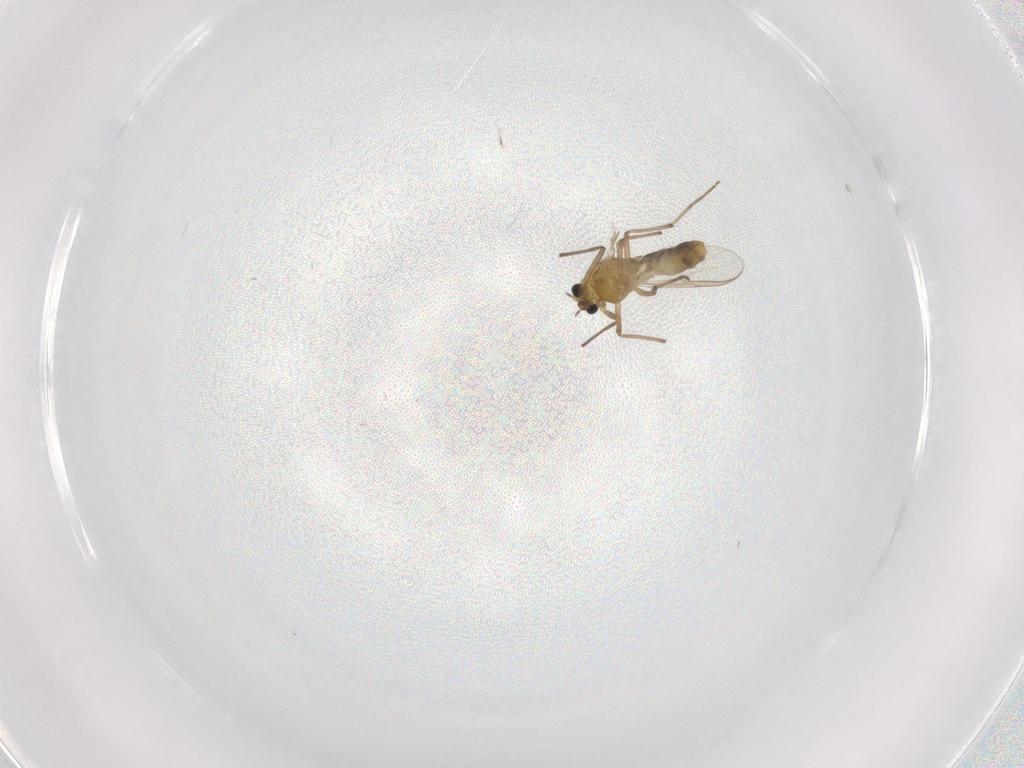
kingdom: Animalia
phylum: Arthropoda
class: Insecta
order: Diptera
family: Chironomidae
